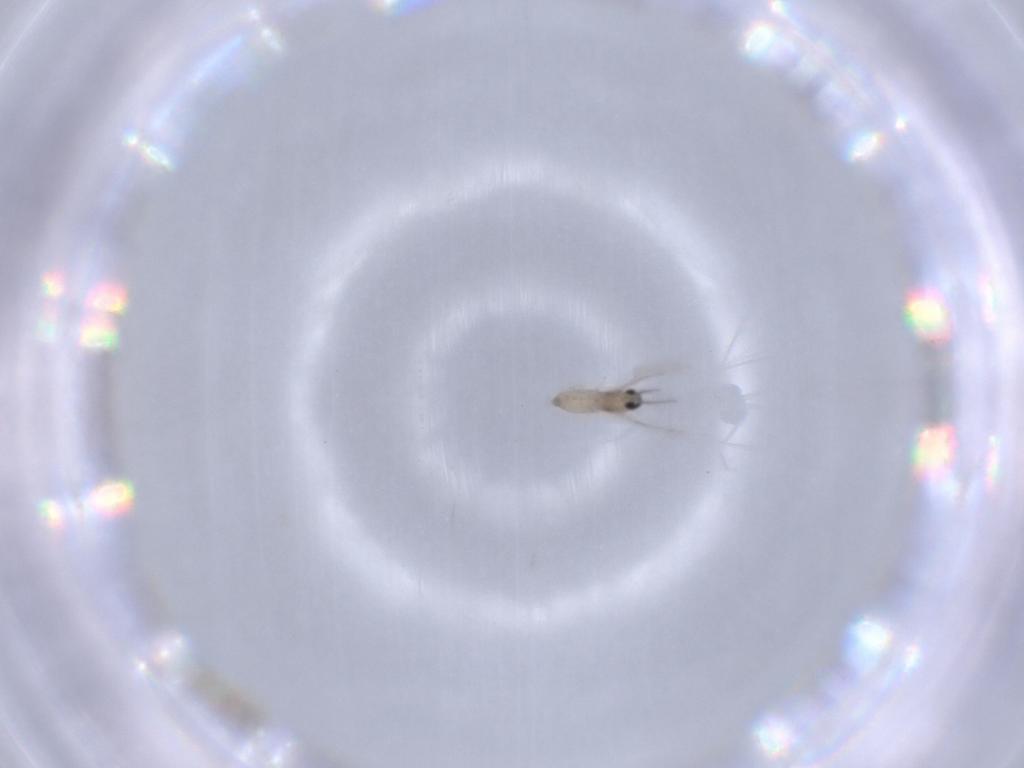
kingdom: Animalia
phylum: Arthropoda
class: Insecta
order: Diptera
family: Cecidomyiidae
